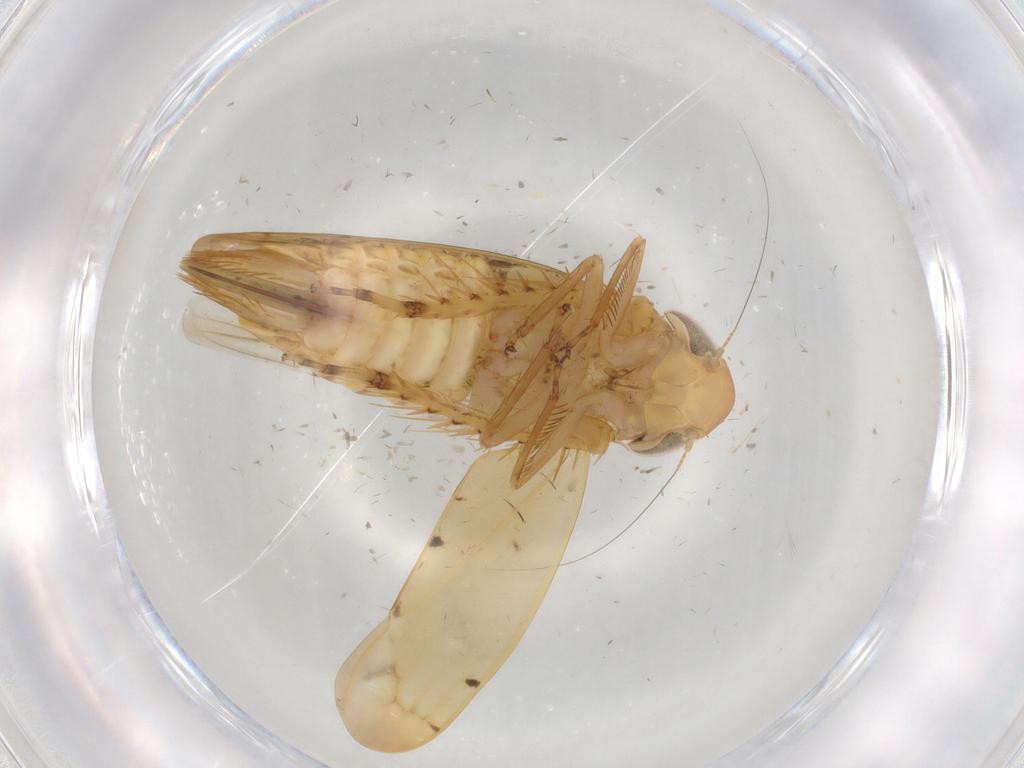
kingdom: Animalia
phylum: Arthropoda
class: Insecta
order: Hemiptera
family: Cicadellidae
